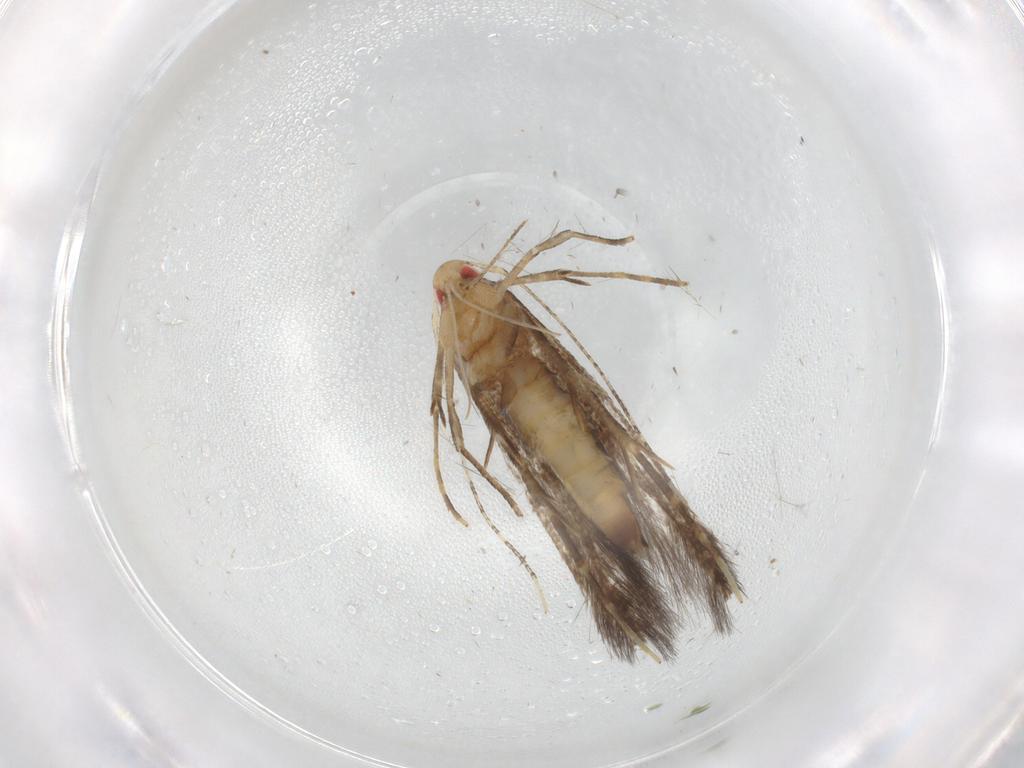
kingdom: Animalia
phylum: Arthropoda
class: Insecta
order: Lepidoptera
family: Cosmopterigidae
